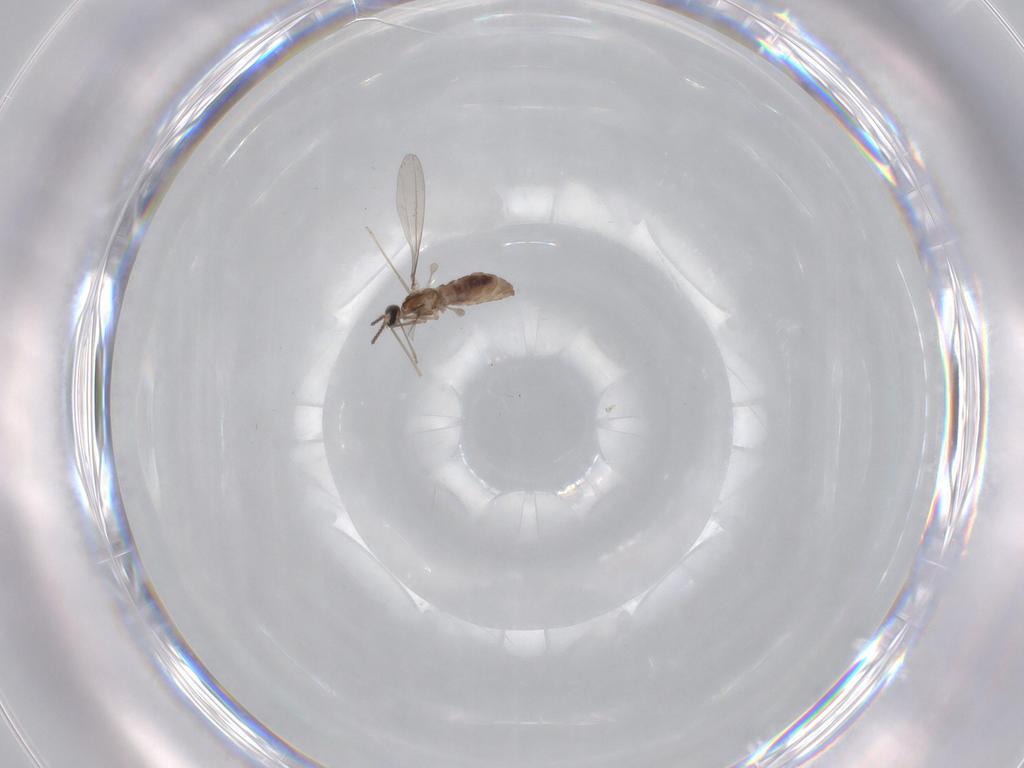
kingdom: Animalia
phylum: Arthropoda
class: Insecta
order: Diptera
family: Cecidomyiidae
